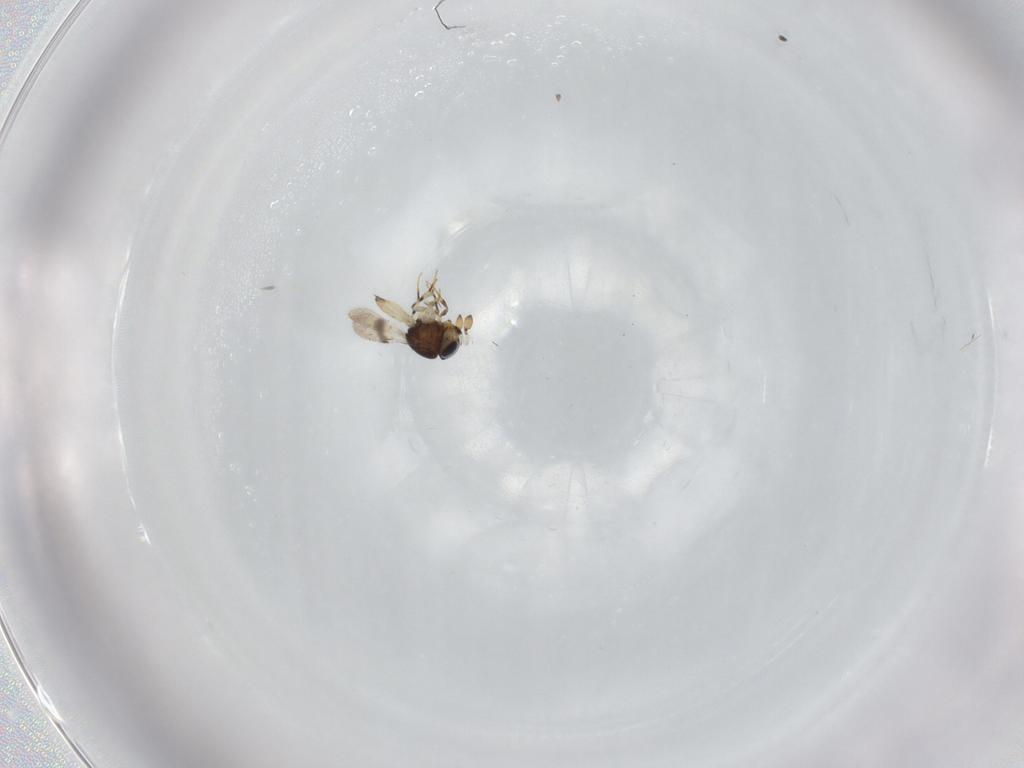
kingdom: Animalia
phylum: Arthropoda
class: Insecta
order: Hymenoptera
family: Scelionidae
